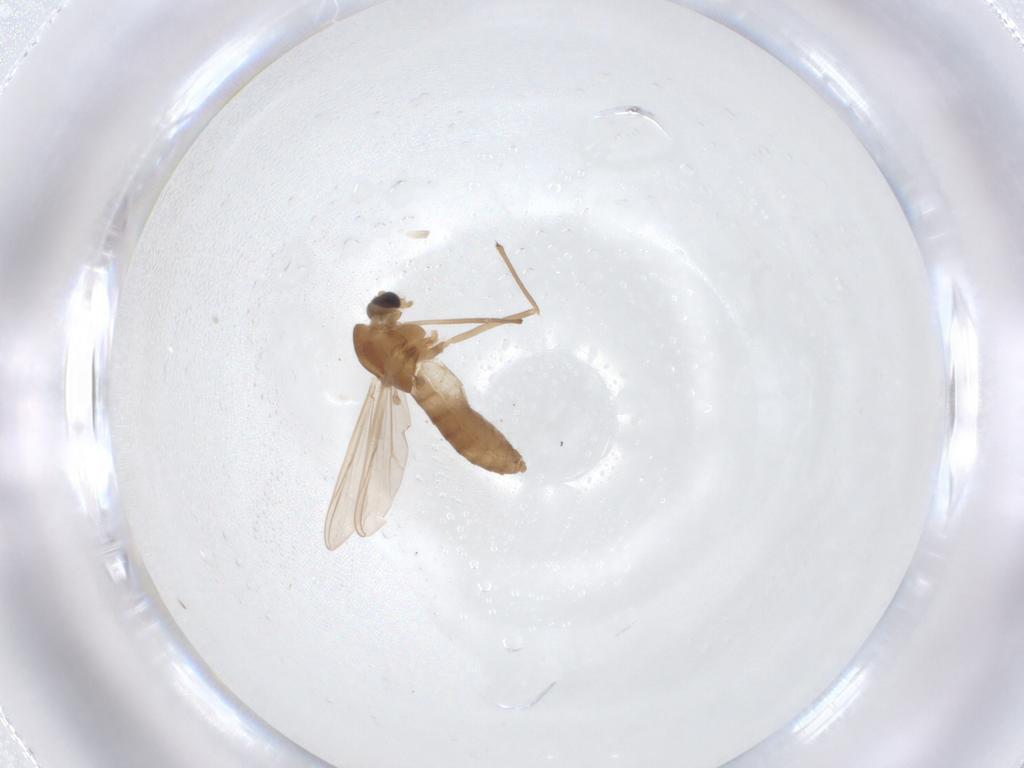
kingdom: Animalia
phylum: Arthropoda
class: Insecta
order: Diptera
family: Chironomidae
